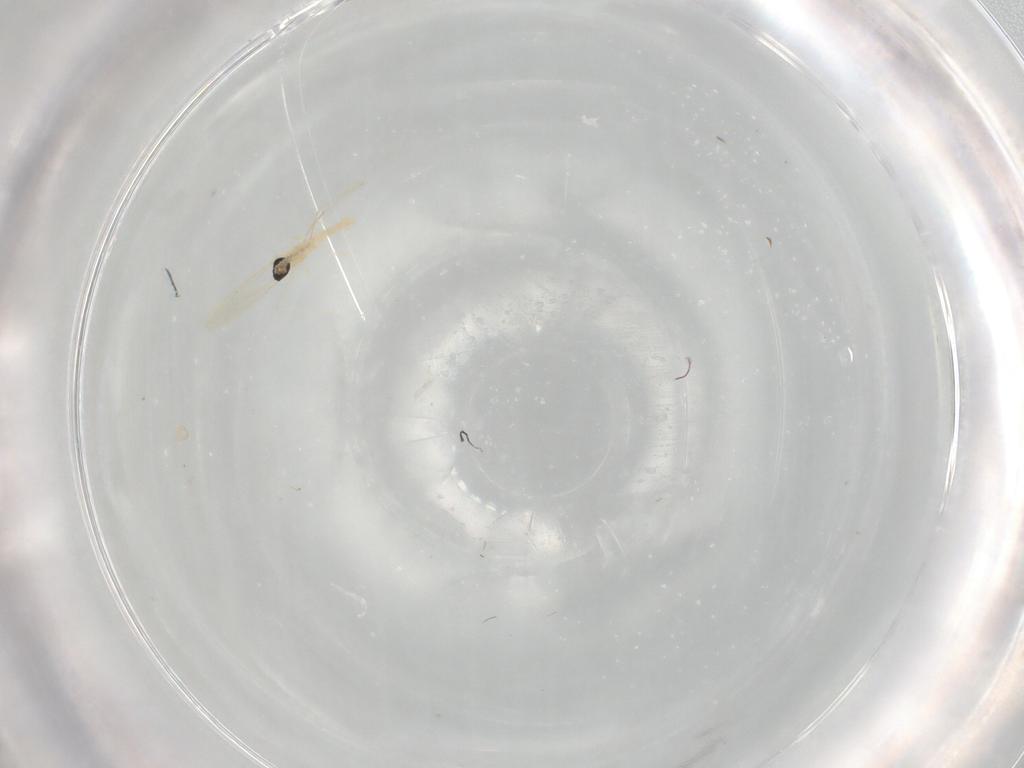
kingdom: Animalia
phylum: Arthropoda
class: Insecta
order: Diptera
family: Cecidomyiidae
